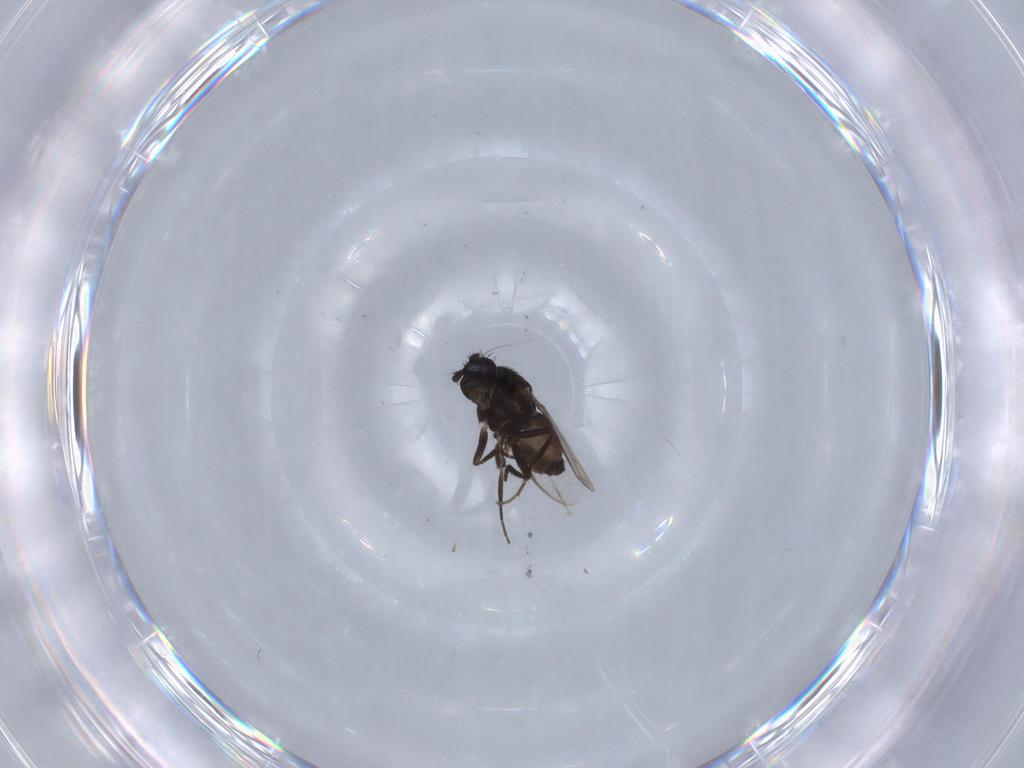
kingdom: Animalia
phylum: Arthropoda
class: Insecta
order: Diptera
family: Sphaeroceridae
